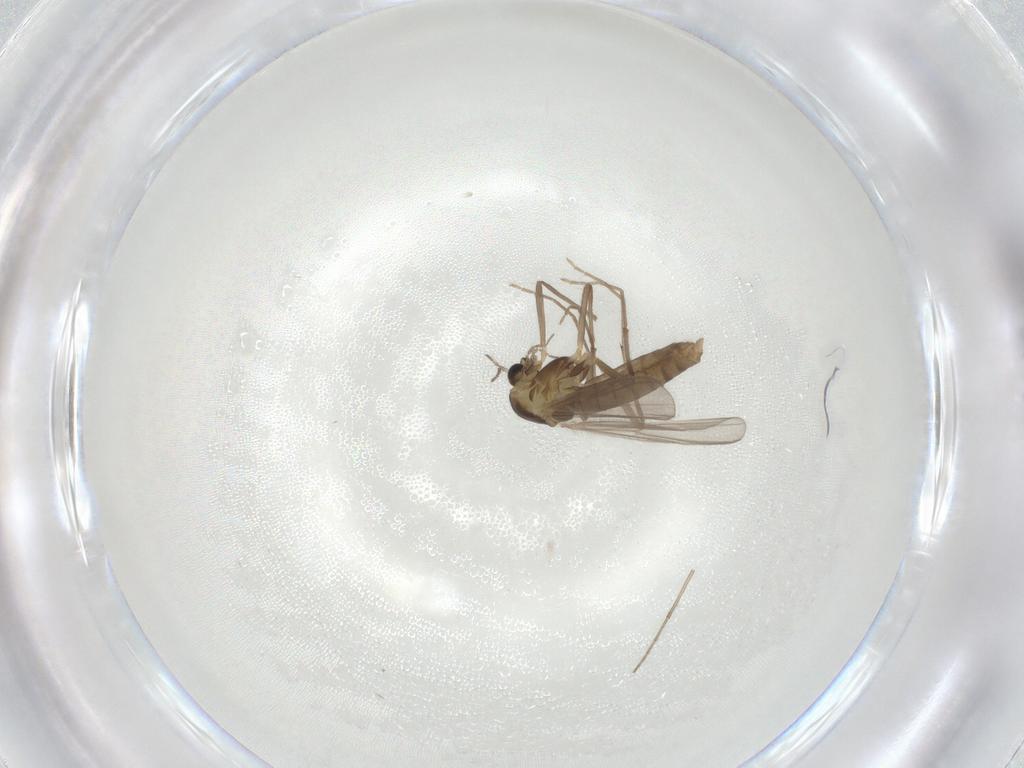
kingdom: Animalia
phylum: Arthropoda
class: Insecta
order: Diptera
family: Chironomidae
